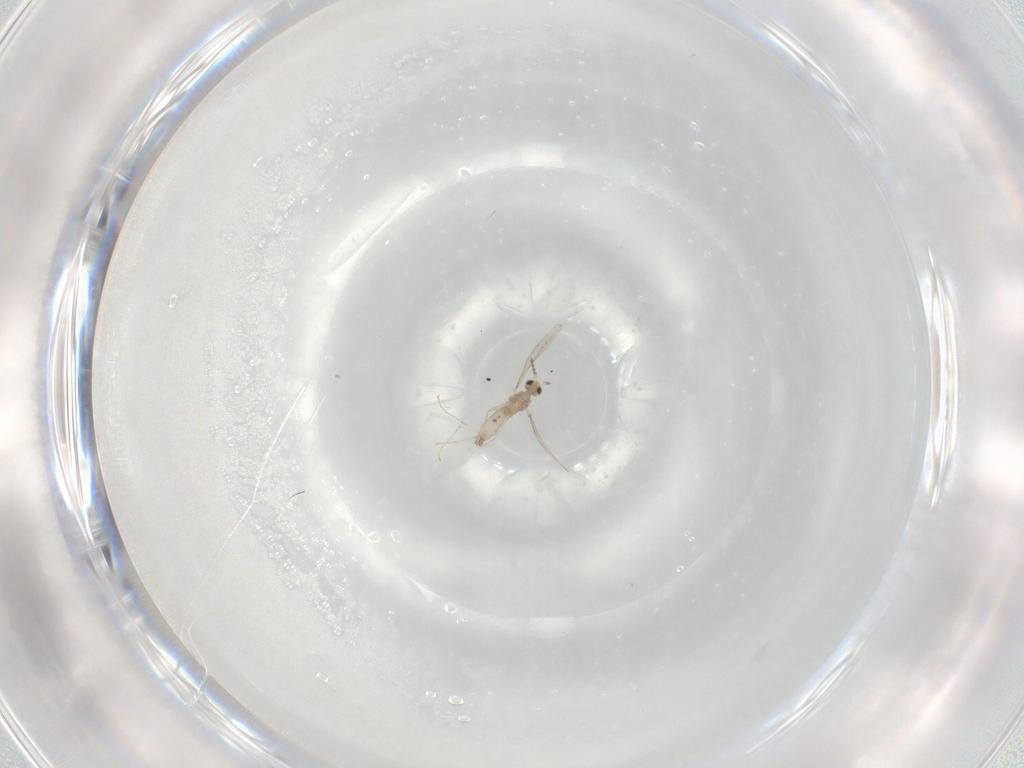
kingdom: Animalia
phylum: Arthropoda
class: Insecta
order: Diptera
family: Cecidomyiidae
